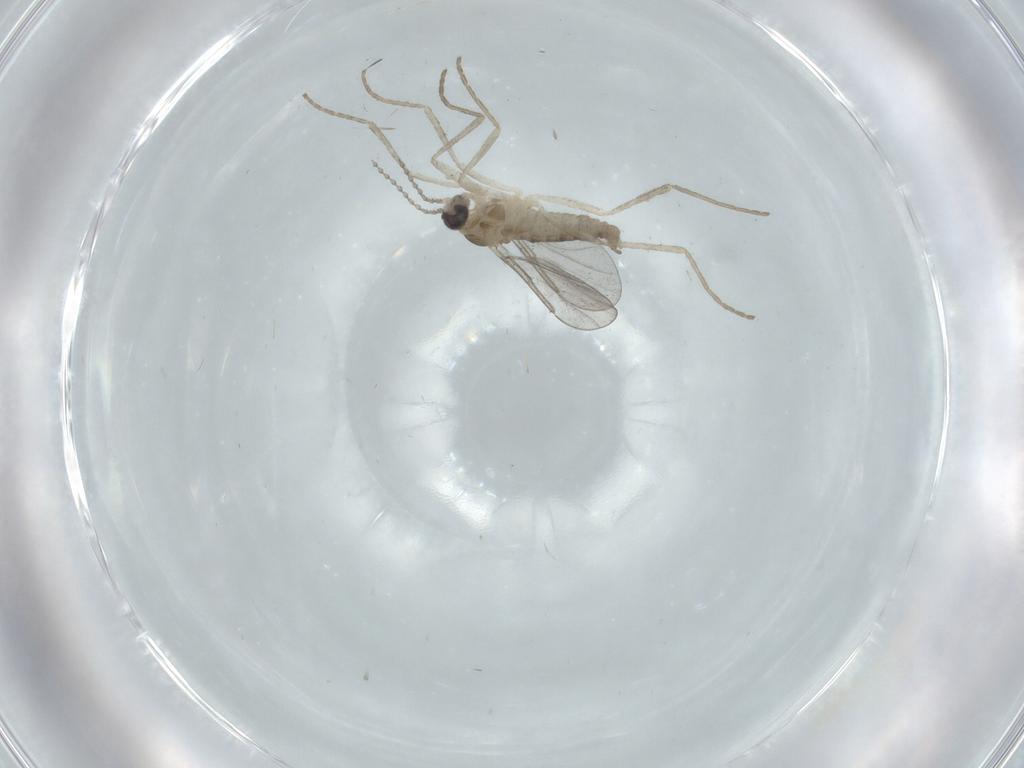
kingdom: Animalia
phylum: Arthropoda
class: Insecta
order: Diptera
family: Cecidomyiidae
